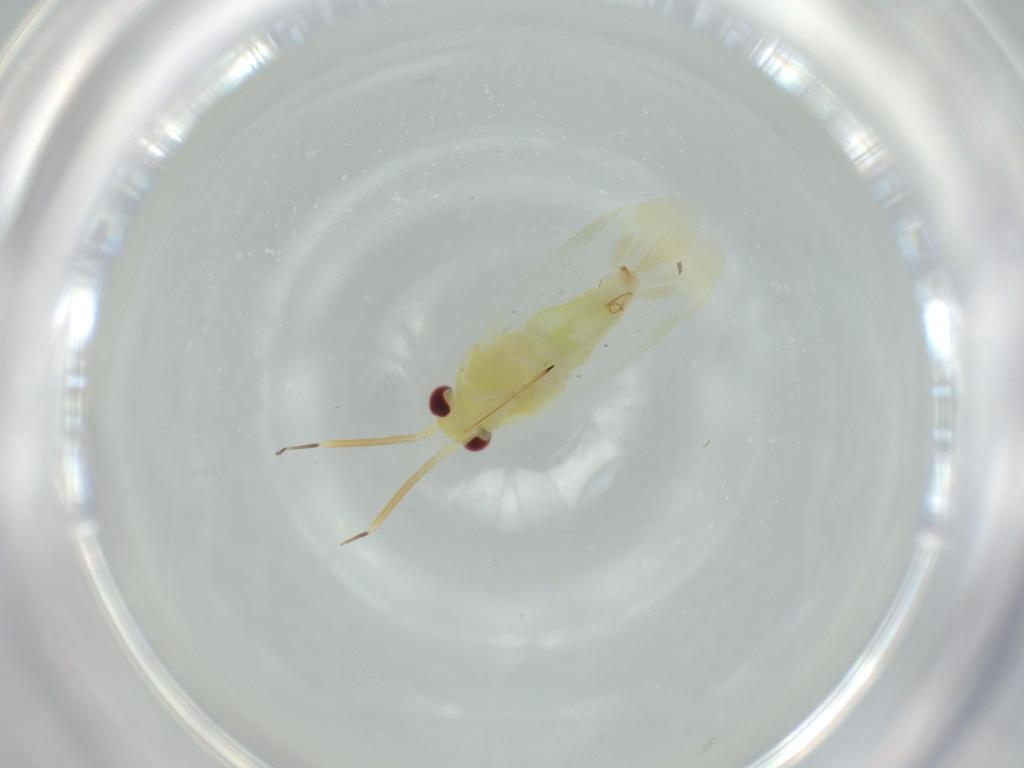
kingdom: Animalia
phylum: Arthropoda
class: Insecta
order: Hemiptera
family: Miridae
